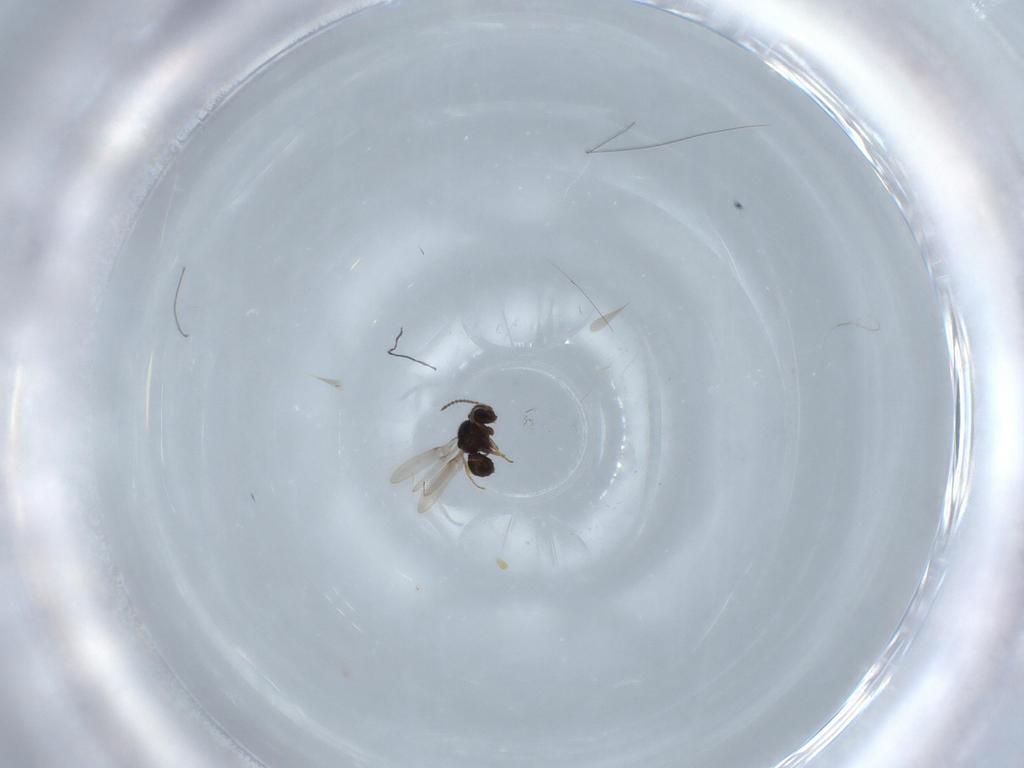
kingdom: Animalia
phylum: Arthropoda
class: Insecta
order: Hymenoptera
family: Scelionidae
